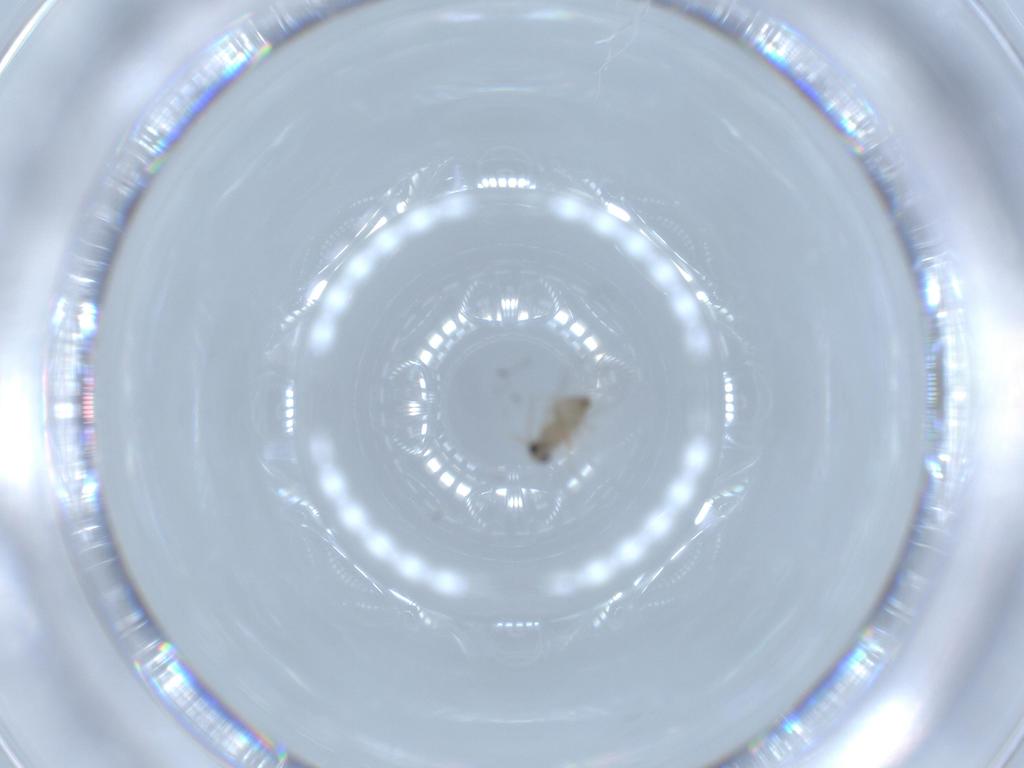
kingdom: Animalia
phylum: Arthropoda
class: Insecta
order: Diptera
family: Cecidomyiidae
